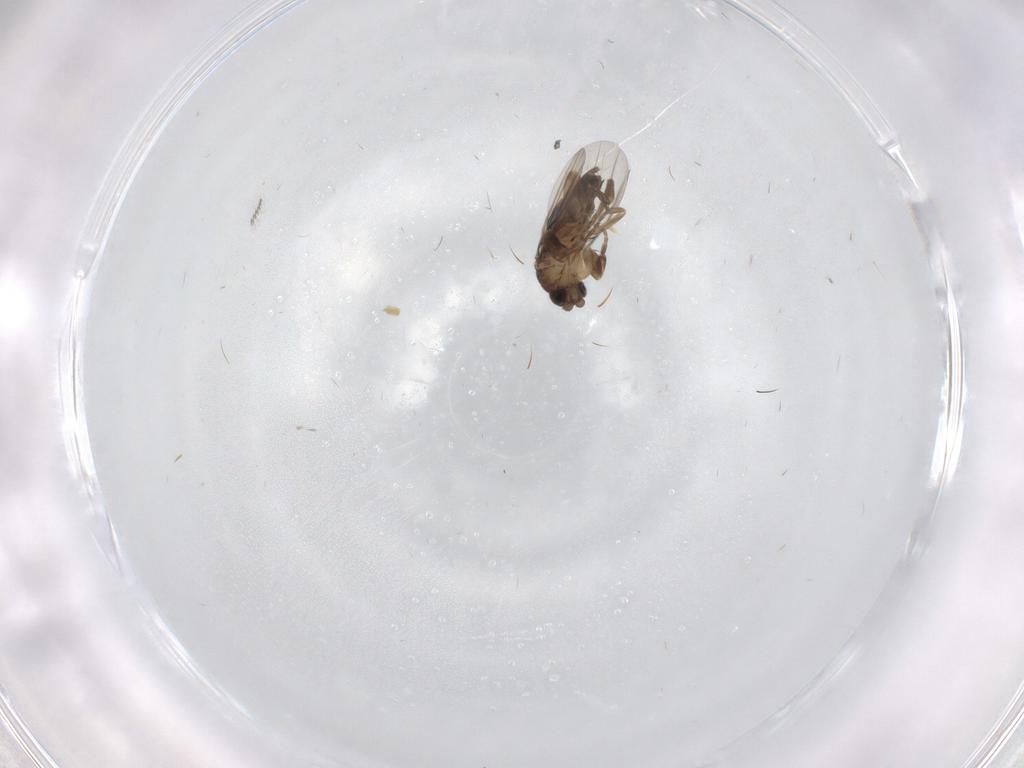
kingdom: Animalia
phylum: Arthropoda
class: Insecta
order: Diptera
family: Phoridae
